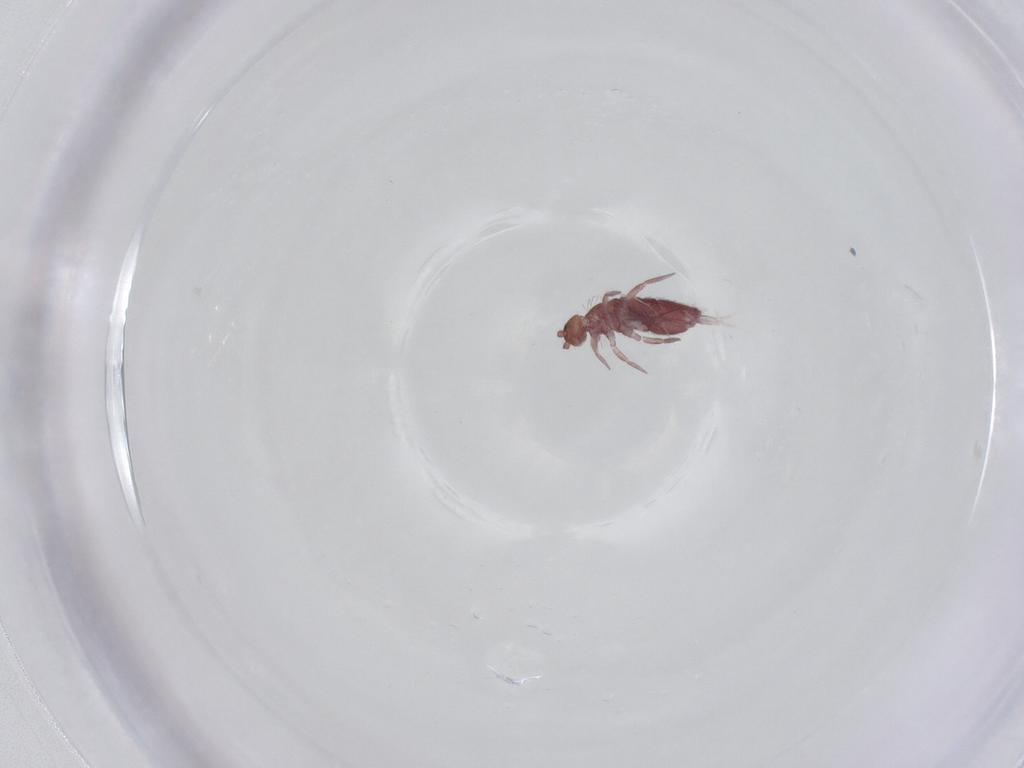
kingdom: Animalia
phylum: Arthropoda
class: Collembola
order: Entomobryomorpha
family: Entomobryidae
